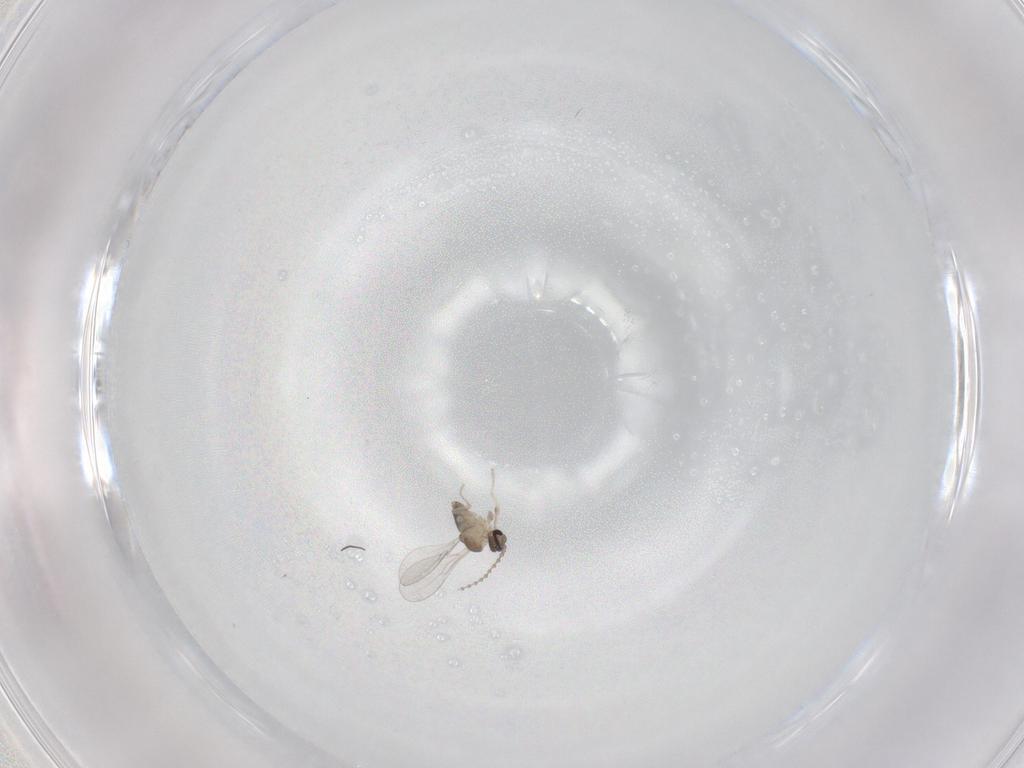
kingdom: Animalia
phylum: Arthropoda
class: Insecta
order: Diptera
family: Cecidomyiidae
